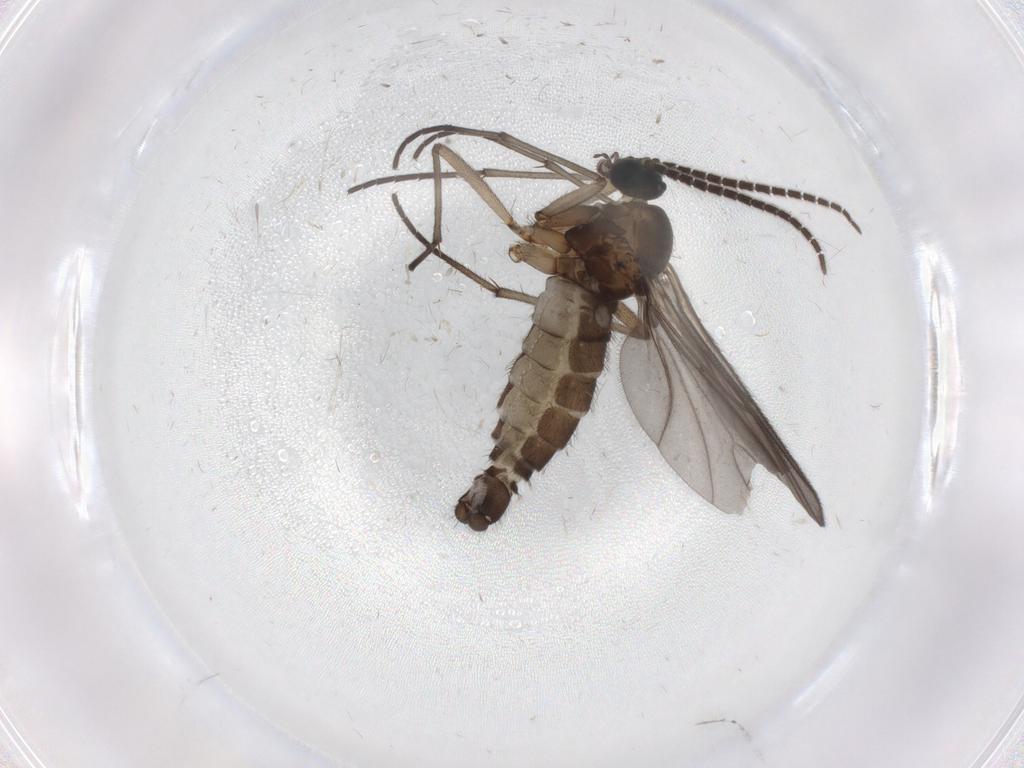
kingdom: Animalia
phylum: Arthropoda
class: Insecta
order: Diptera
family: Sciaridae
